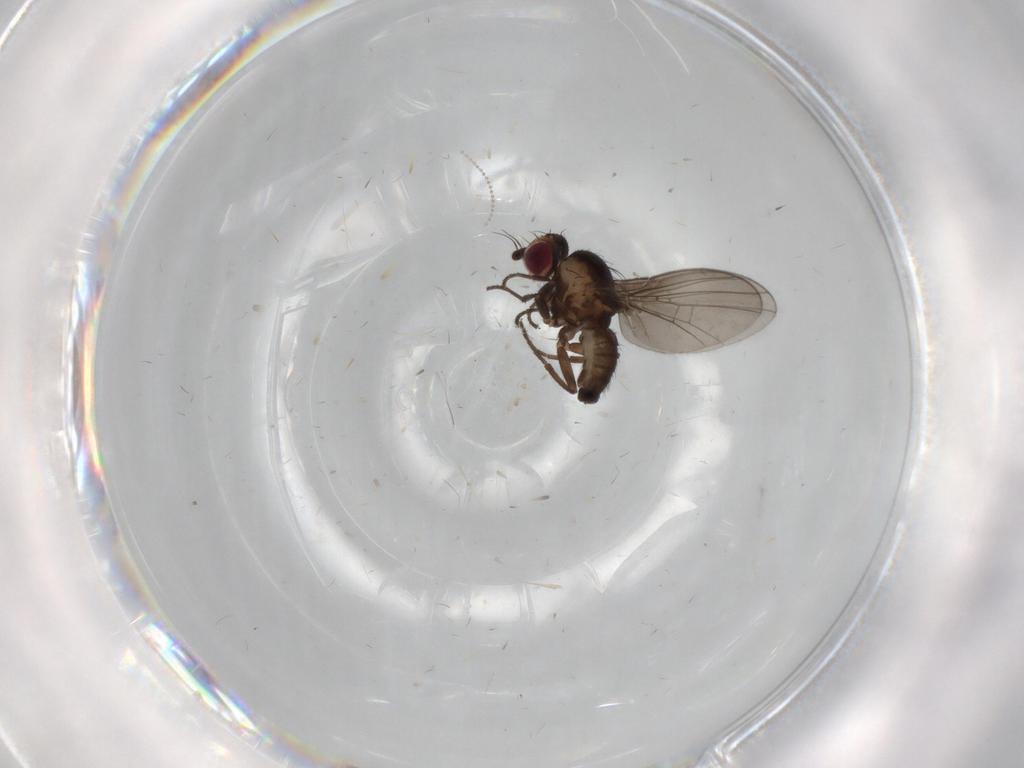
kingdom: Animalia
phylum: Arthropoda
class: Insecta
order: Diptera
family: Agromyzidae
